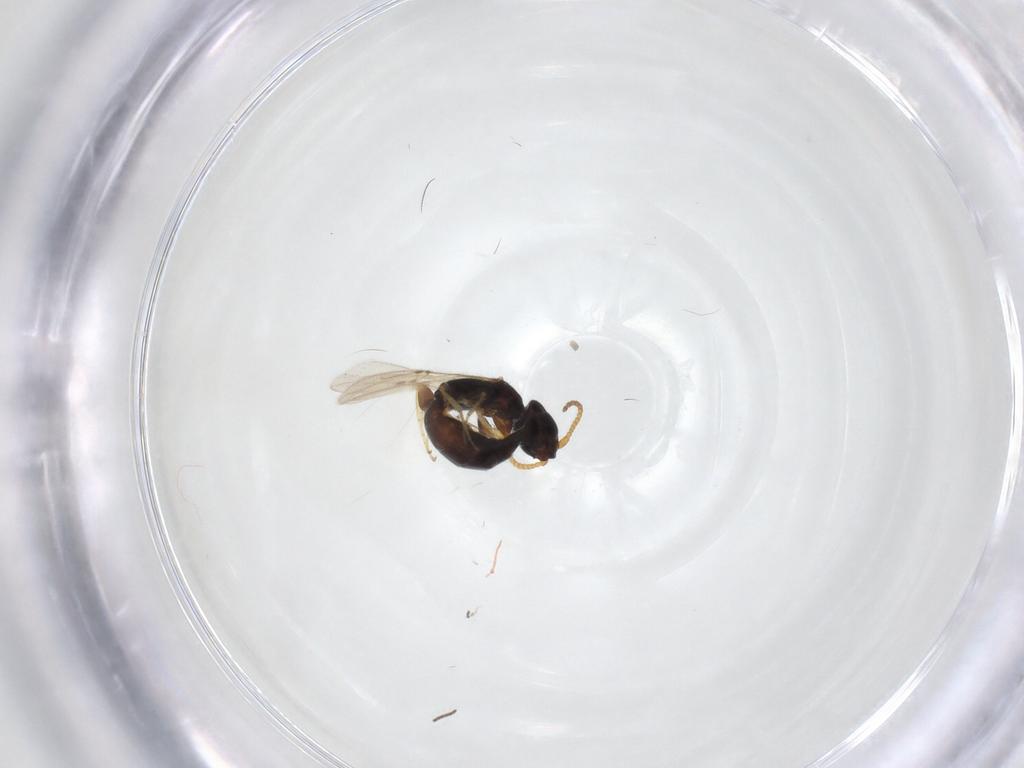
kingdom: Animalia
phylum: Arthropoda
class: Insecta
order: Hymenoptera
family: Bethylidae
